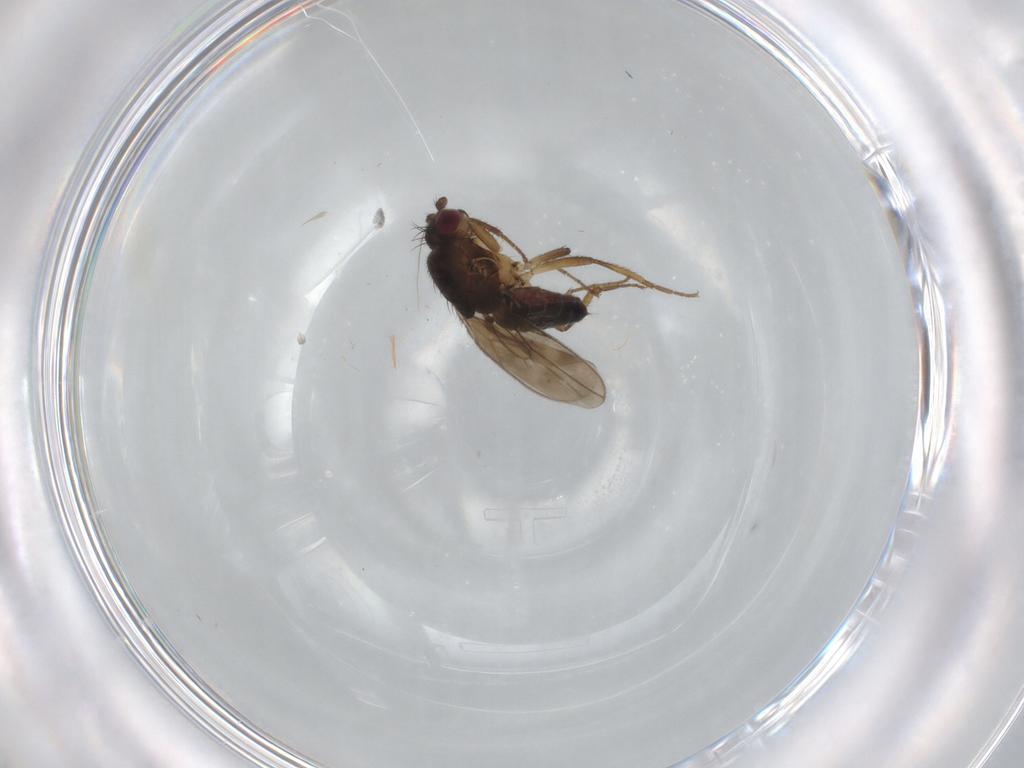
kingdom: Animalia
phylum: Arthropoda
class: Insecta
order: Diptera
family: Sphaeroceridae
